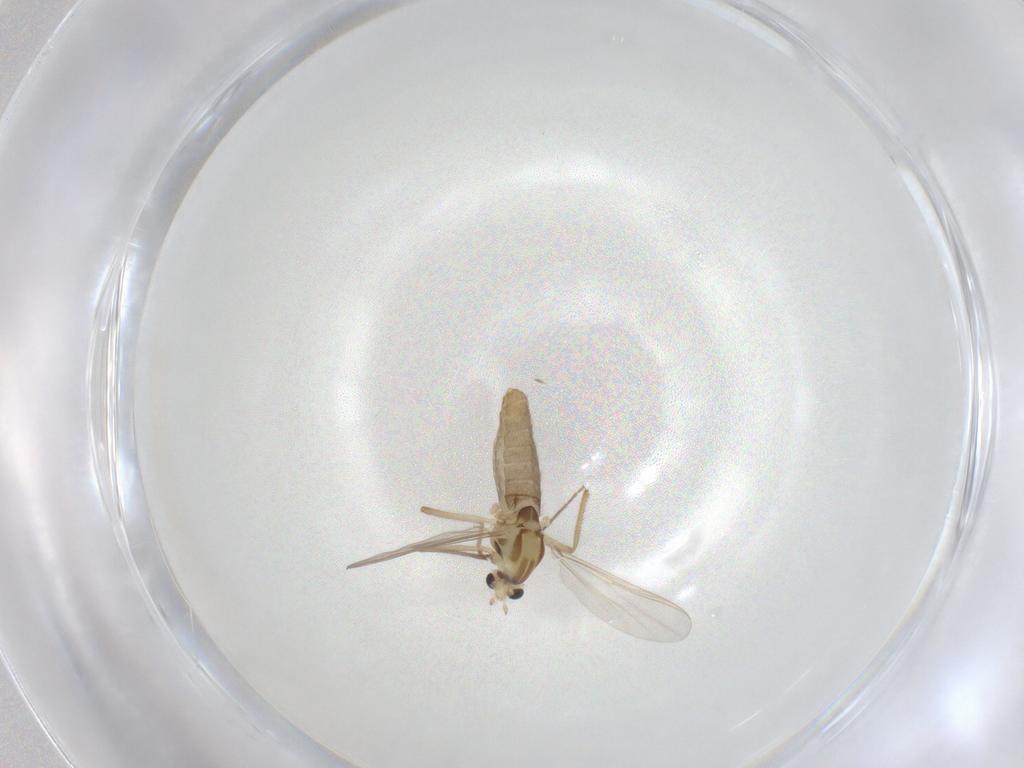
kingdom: Animalia
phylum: Arthropoda
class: Insecta
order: Diptera
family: Chironomidae
